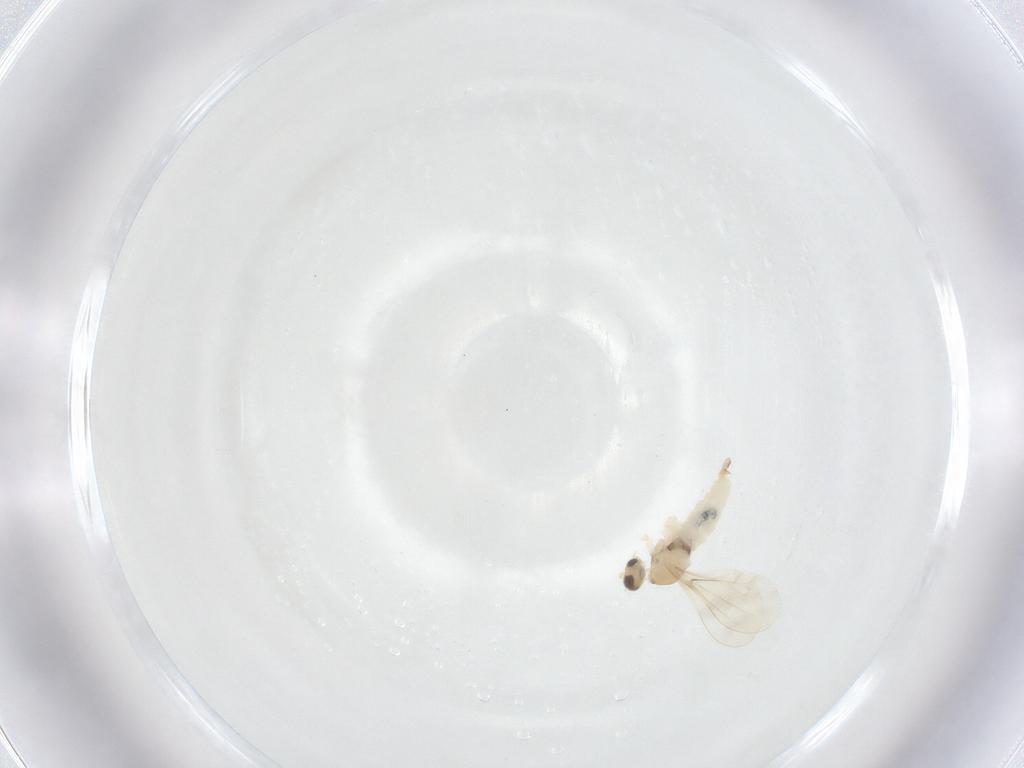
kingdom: Animalia
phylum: Arthropoda
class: Insecta
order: Diptera
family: Cecidomyiidae
